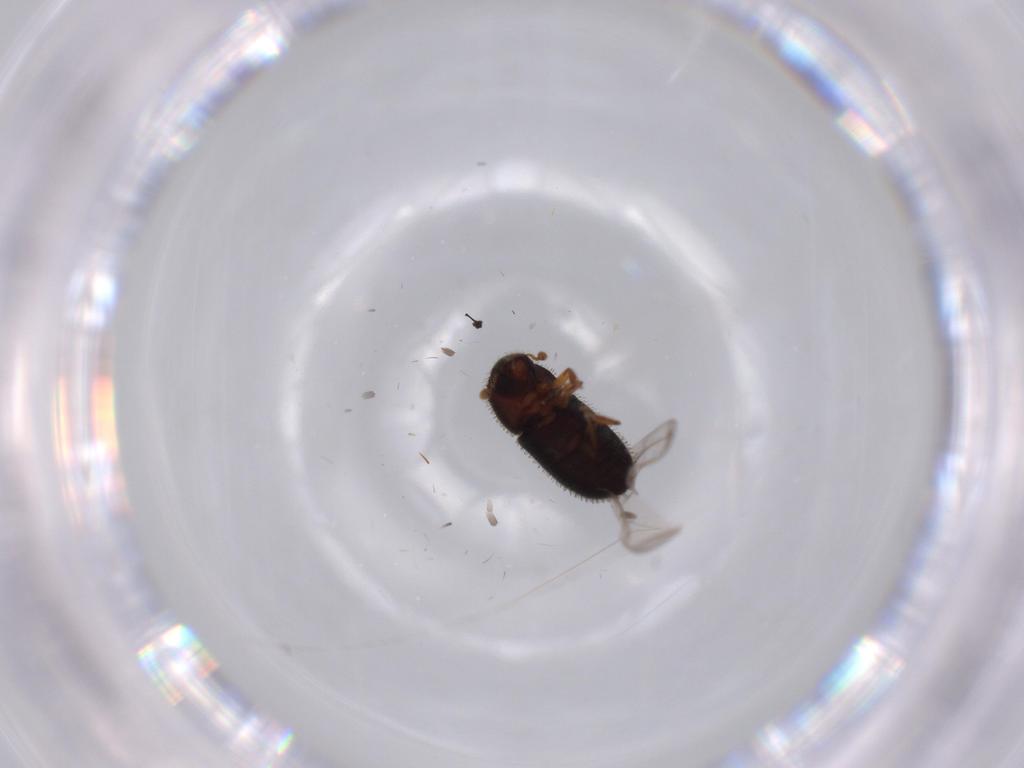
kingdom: Animalia
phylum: Arthropoda
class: Insecta
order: Coleoptera
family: Curculionidae
